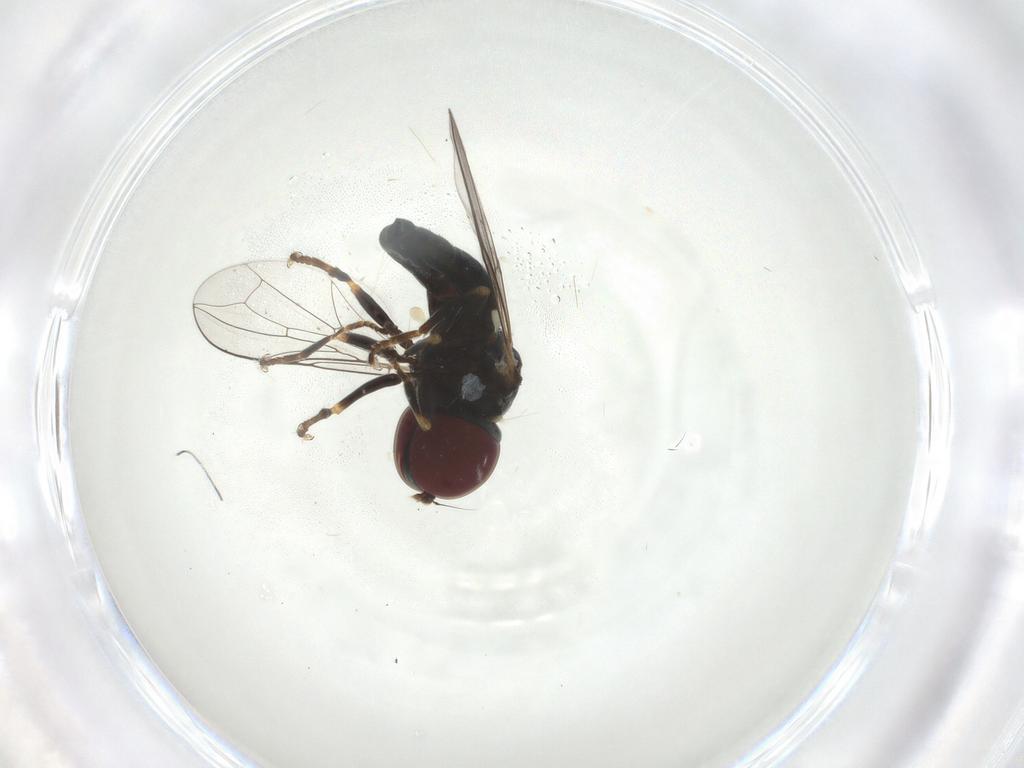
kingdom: Animalia
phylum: Arthropoda
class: Insecta
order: Diptera
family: Pipunculidae
